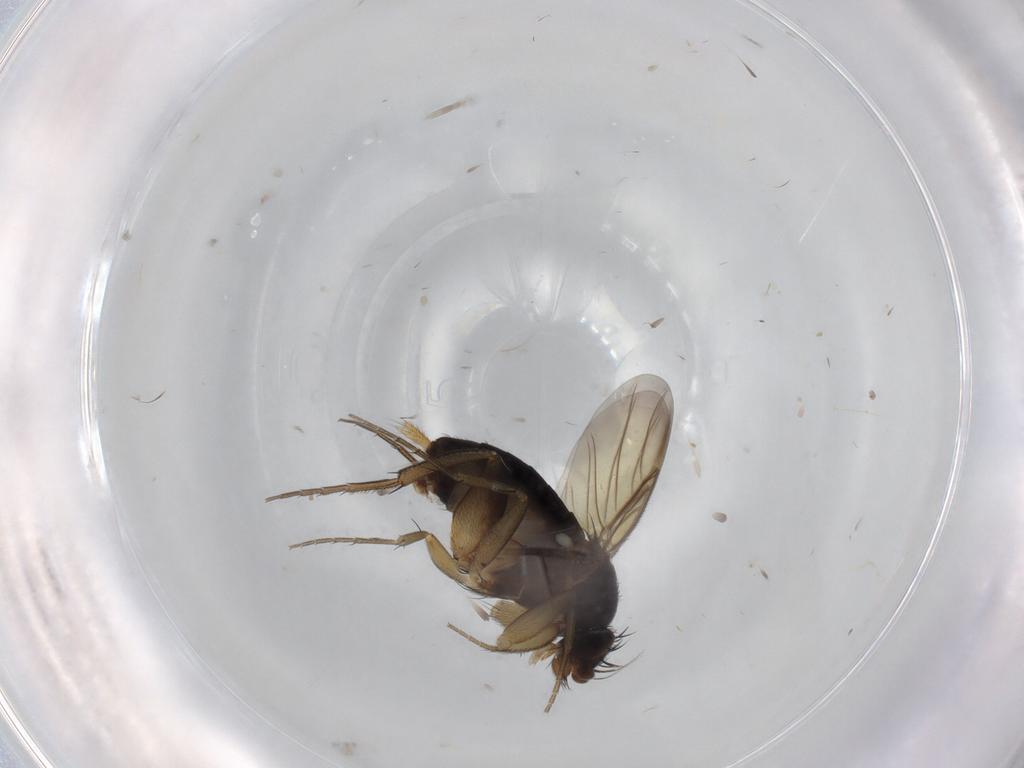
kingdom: Animalia
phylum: Arthropoda
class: Insecta
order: Diptera
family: Phoridae
